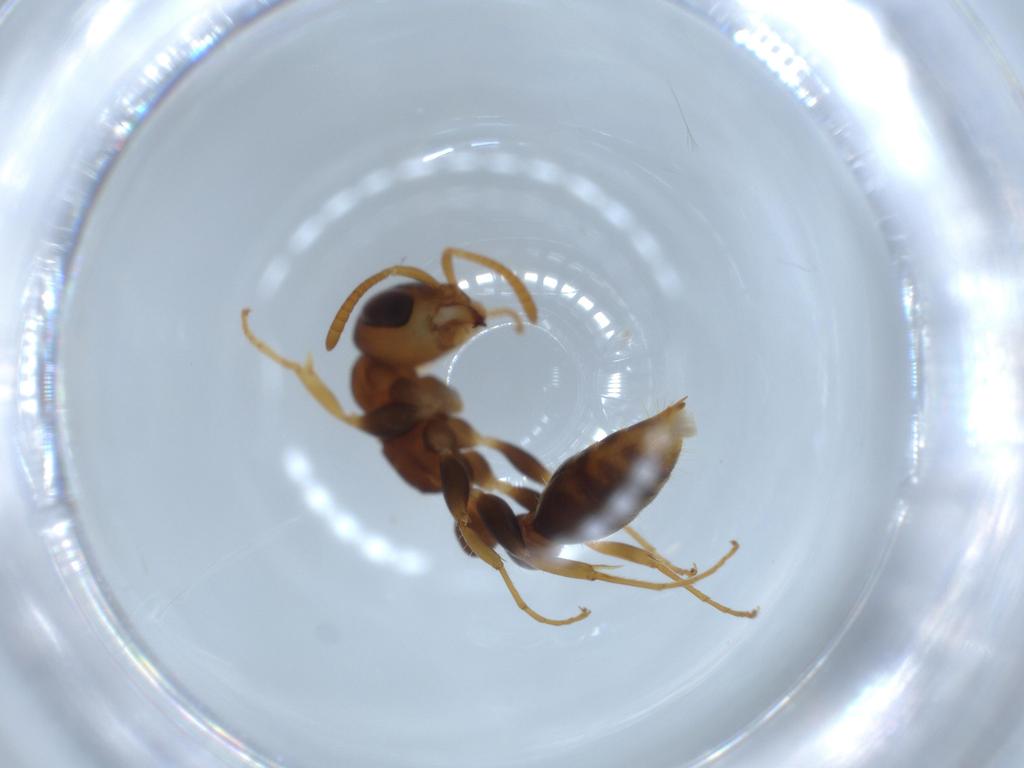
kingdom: Animalia
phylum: Arthropoda
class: Insecta
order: Hymenoptera
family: Formicidae
